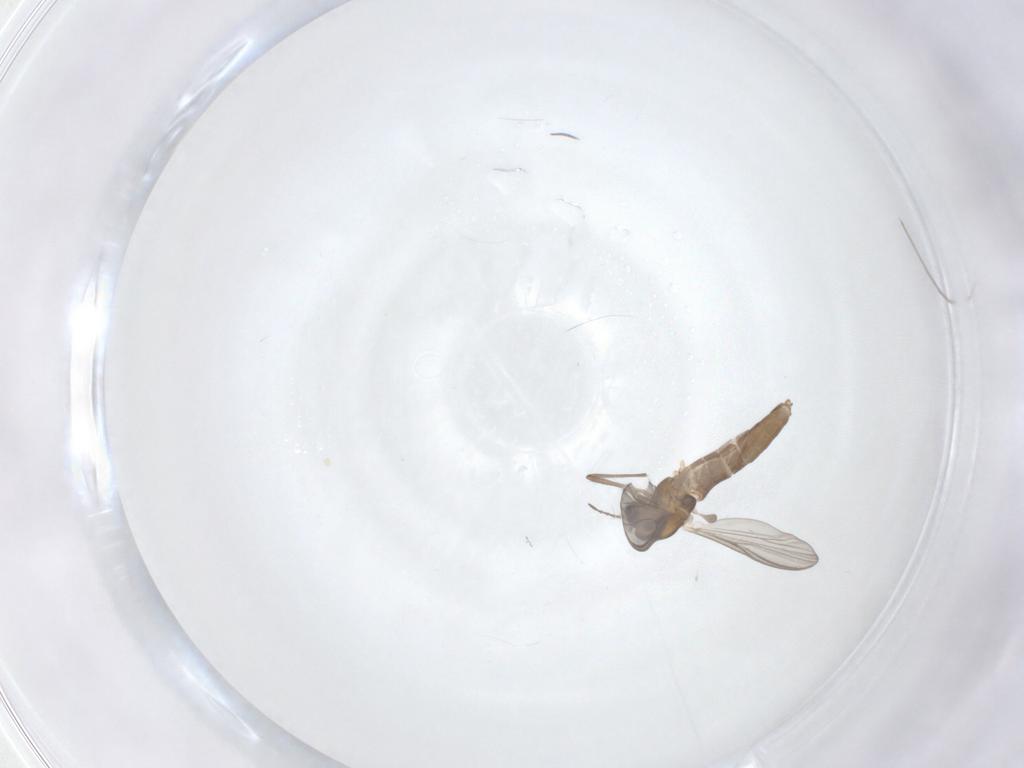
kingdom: Animalia
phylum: Arthropoda
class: Insecta
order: Diptera
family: Chironomidae
